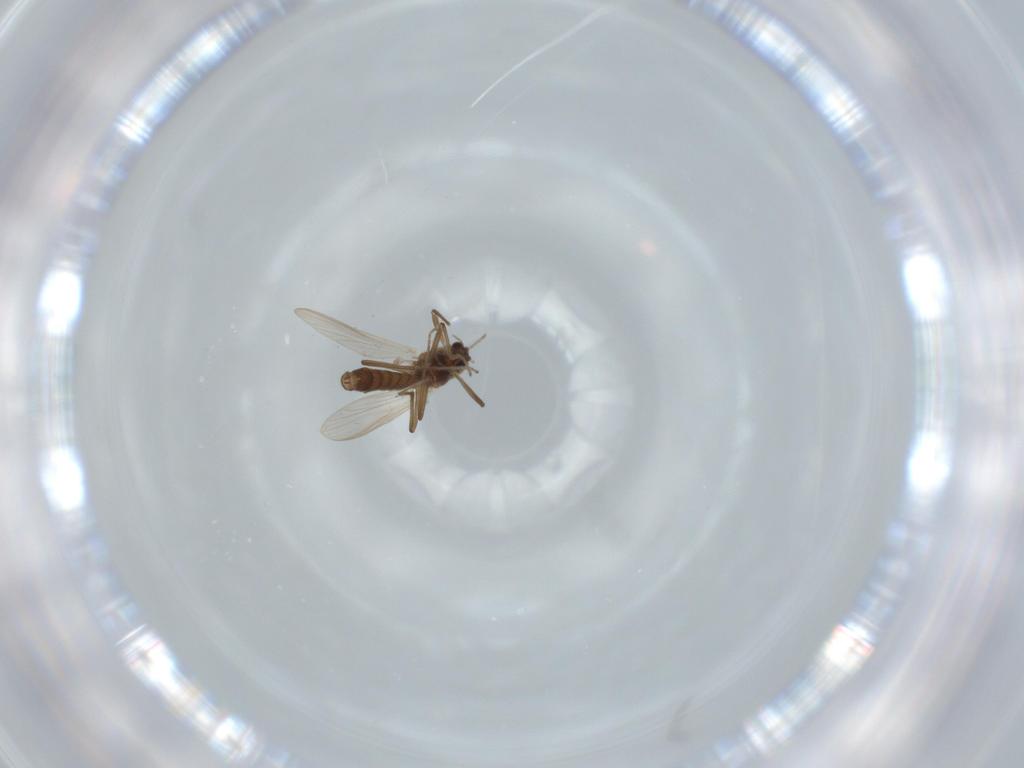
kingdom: Animalia
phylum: Arthropoda
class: Insecta
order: Diptera
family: Chironomidae
